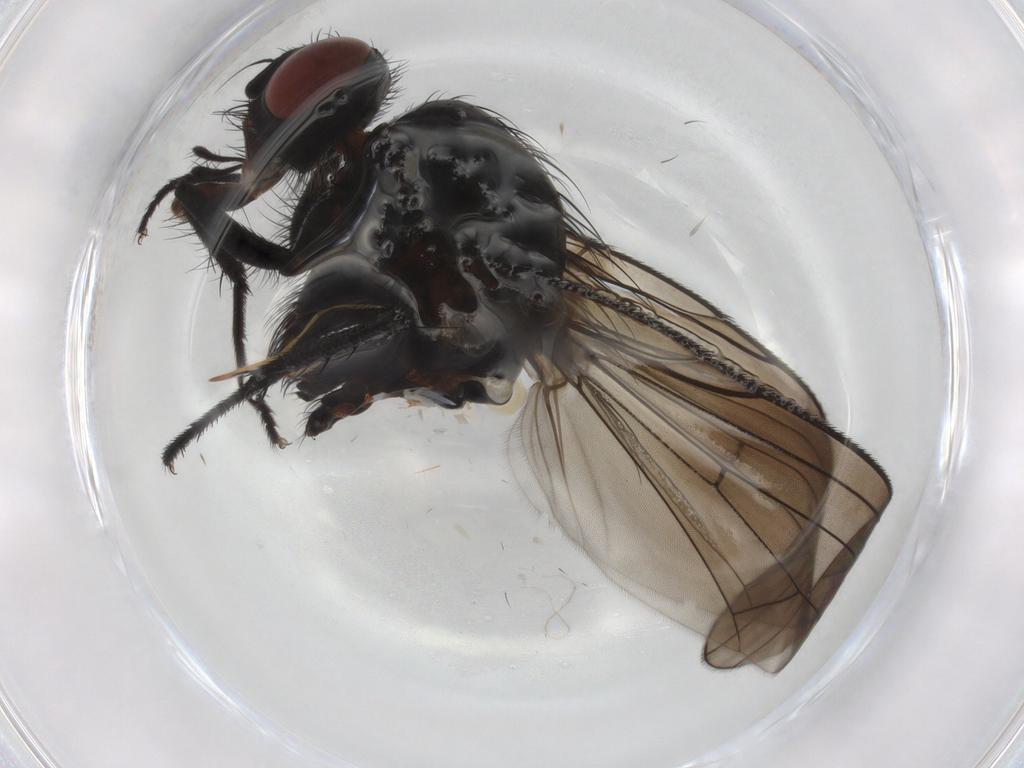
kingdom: Animalia
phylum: Arthropoda
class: Insecta
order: Diptera
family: Anthomyiidae
